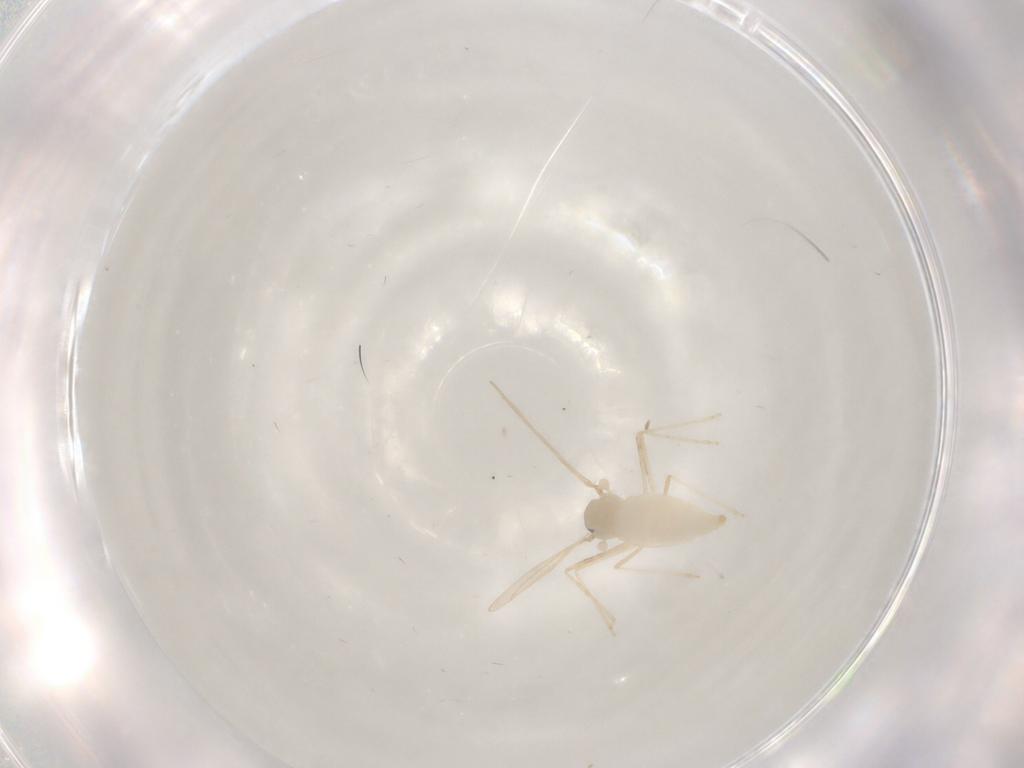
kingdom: Animalia
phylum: Arthropoda
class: Insecta
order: Diptera
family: Cecidomyiidae
